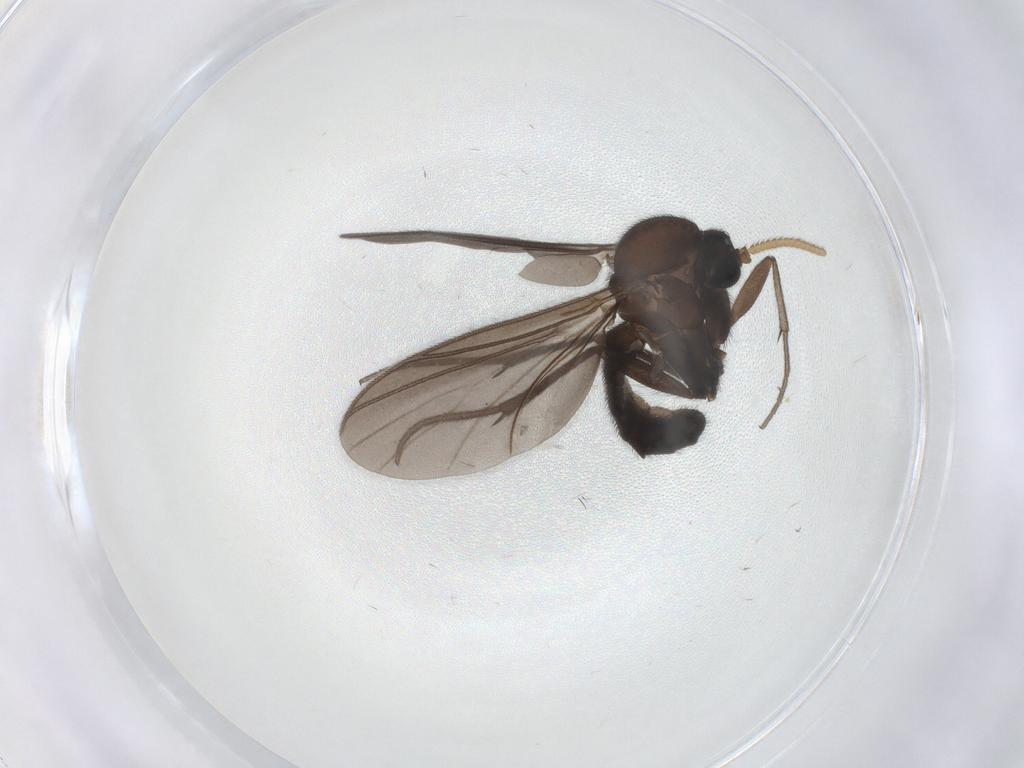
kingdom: Animalia
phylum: Arthropoda
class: Insecta
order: Diptera
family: Mycetophilidae
